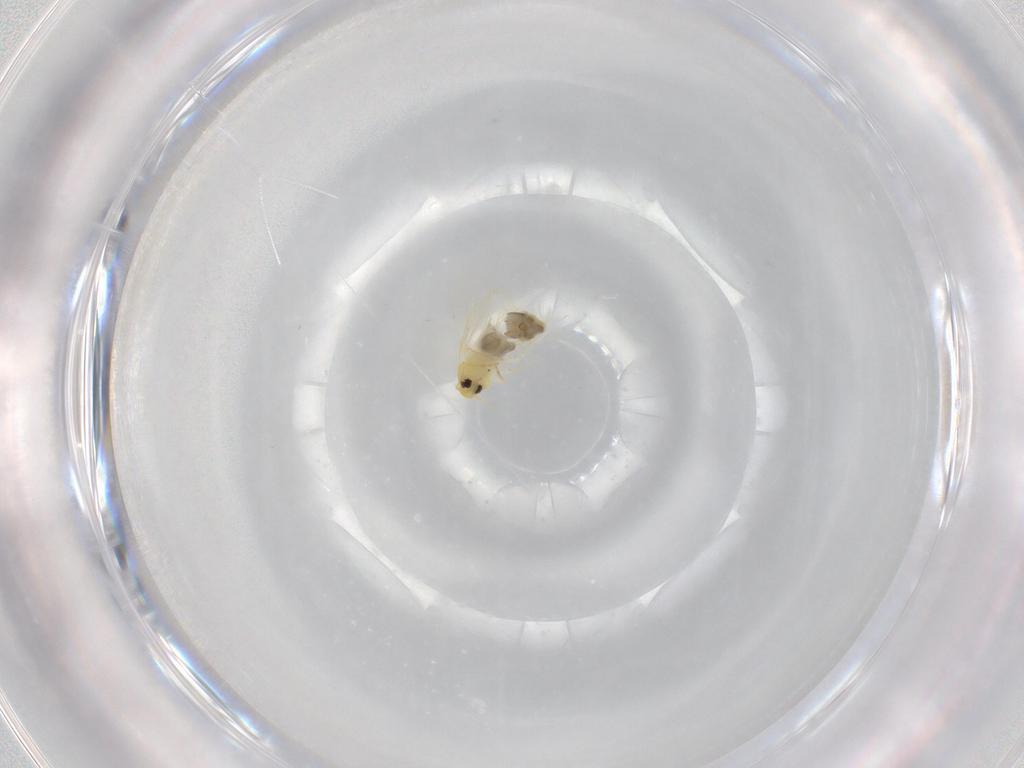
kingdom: Animalia
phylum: Arthropoda
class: Insecta
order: Hemiptera
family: Aleyrodidae
